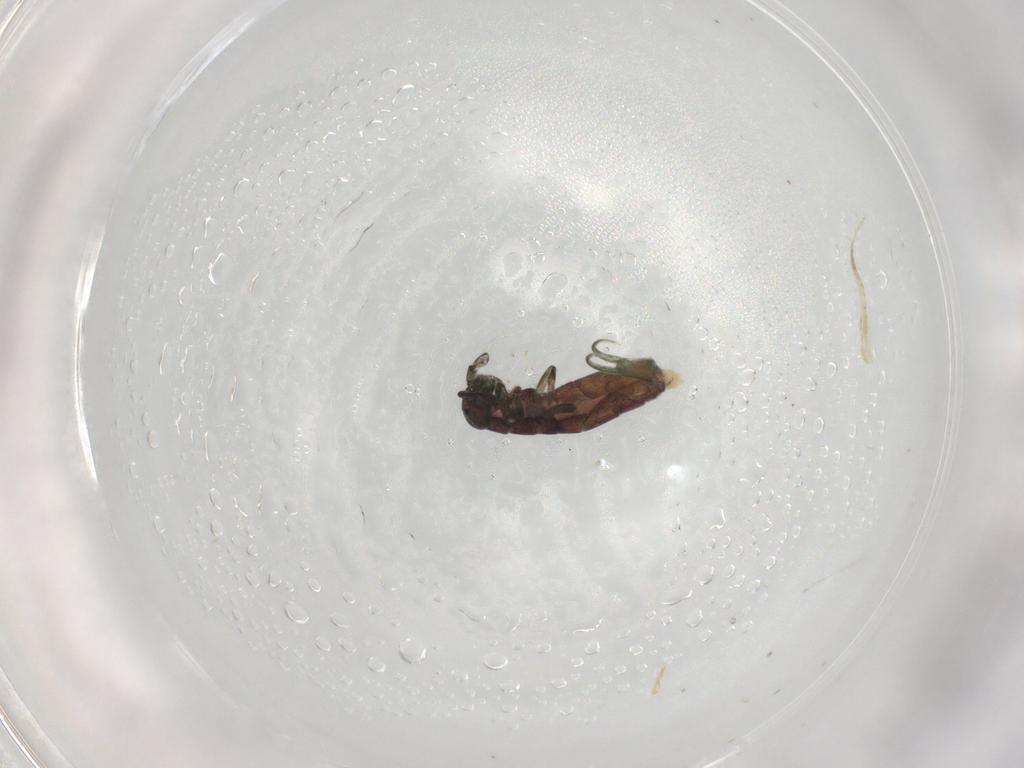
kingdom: Animalia
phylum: Arthropoda
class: Collembola
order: Entomobryomorpha
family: Isotomidae
